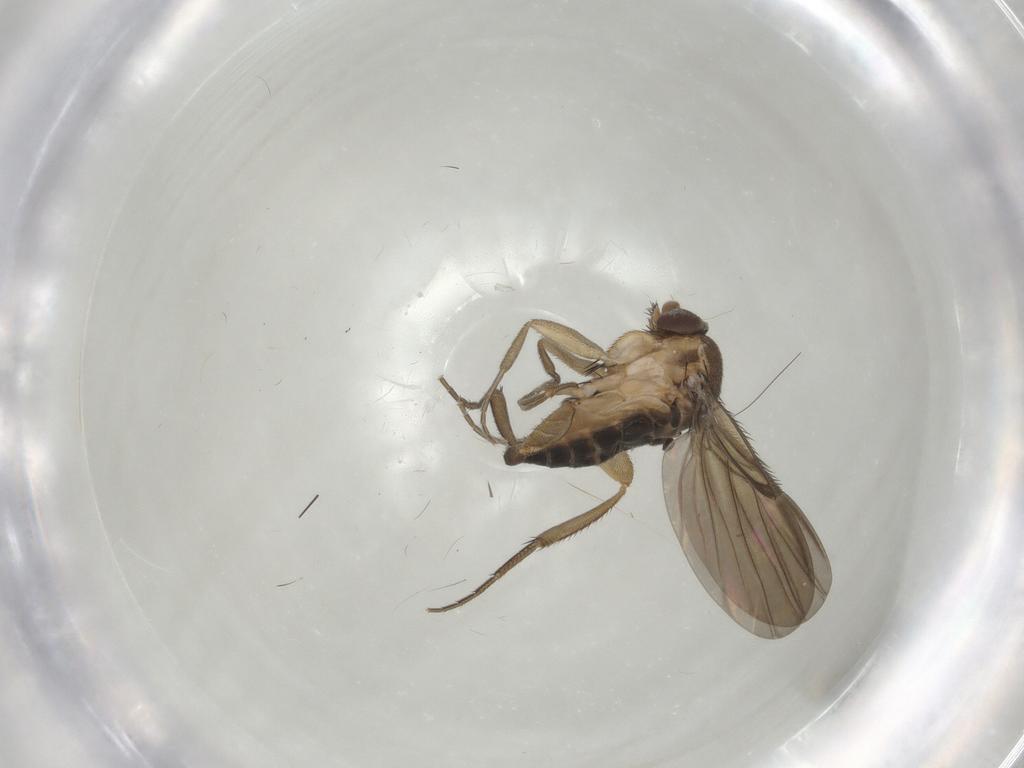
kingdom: Animalia
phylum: Arthropoda
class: Insecta
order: Diptera
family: Phoridae
